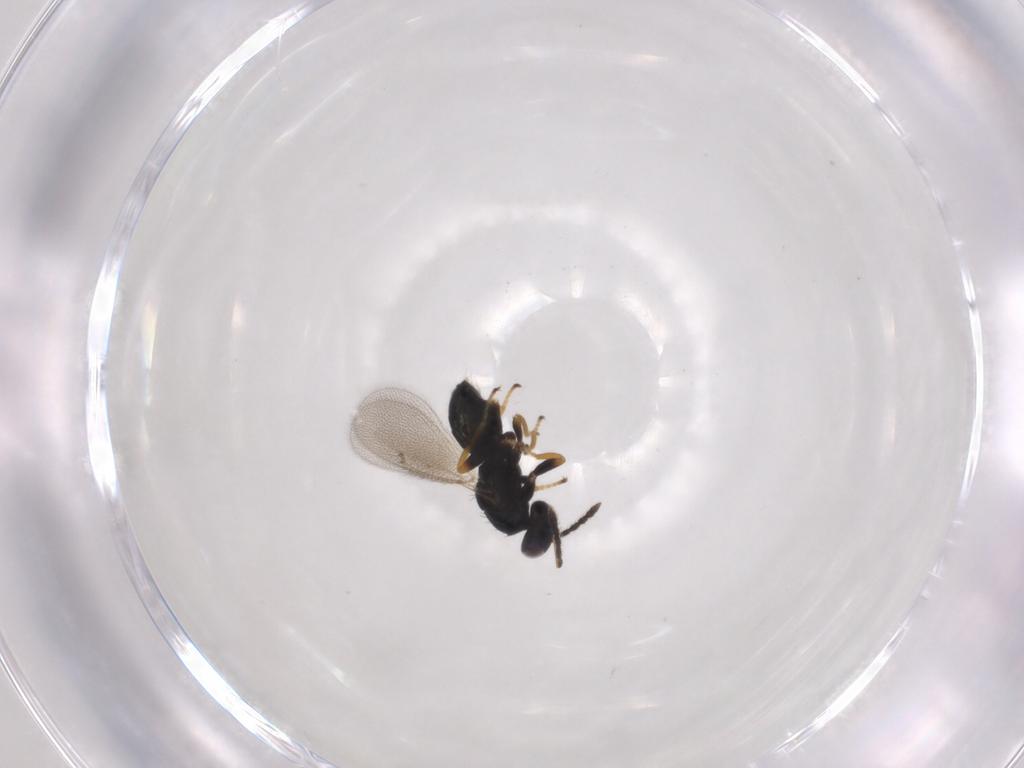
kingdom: Animalia
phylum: Arthropoda
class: Insecta
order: Hymenoptera
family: Eulophidae
